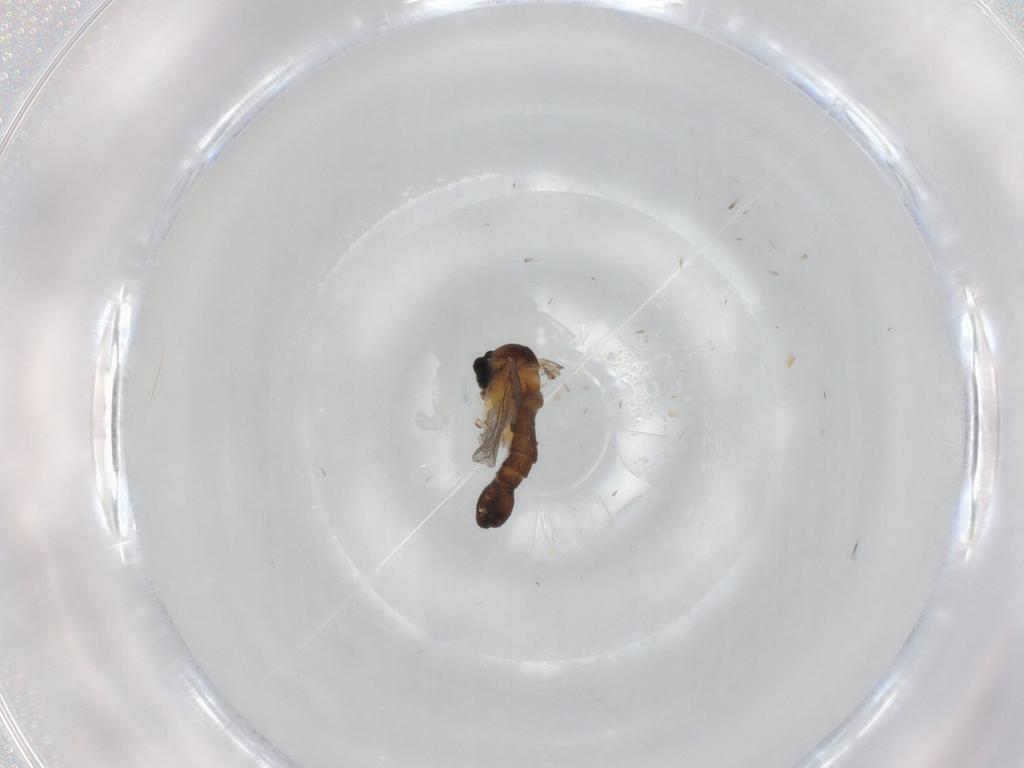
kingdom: Animalia
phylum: Arthropoda
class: Insecta
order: Diptera
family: Sciaridae
